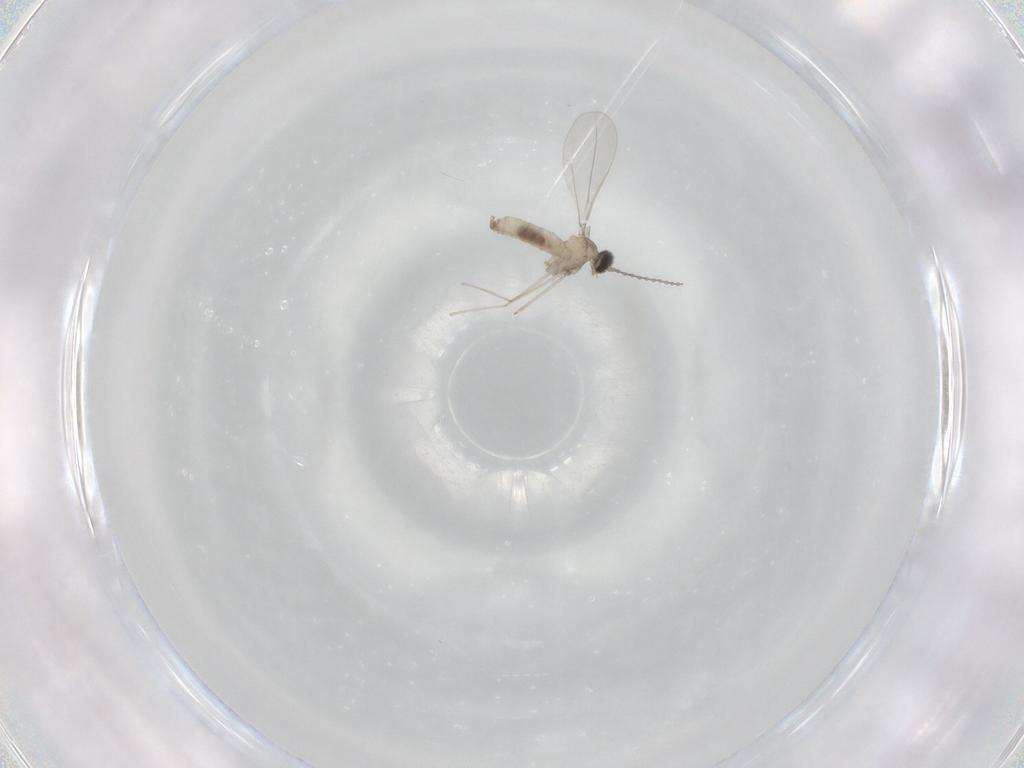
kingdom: Animalia
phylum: Arthropoda
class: Insecta
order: Diptera
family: Cecidomyiidae
